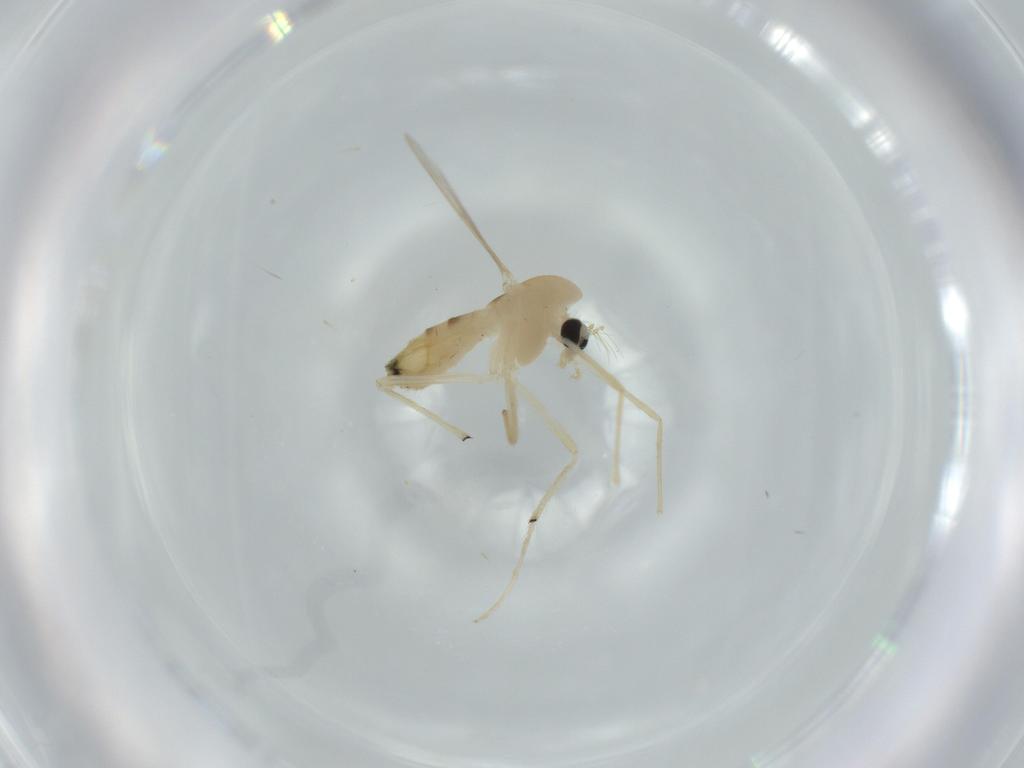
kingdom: Animalia
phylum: Arthropoda
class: Insecta
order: Diptera
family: Chironomidae
